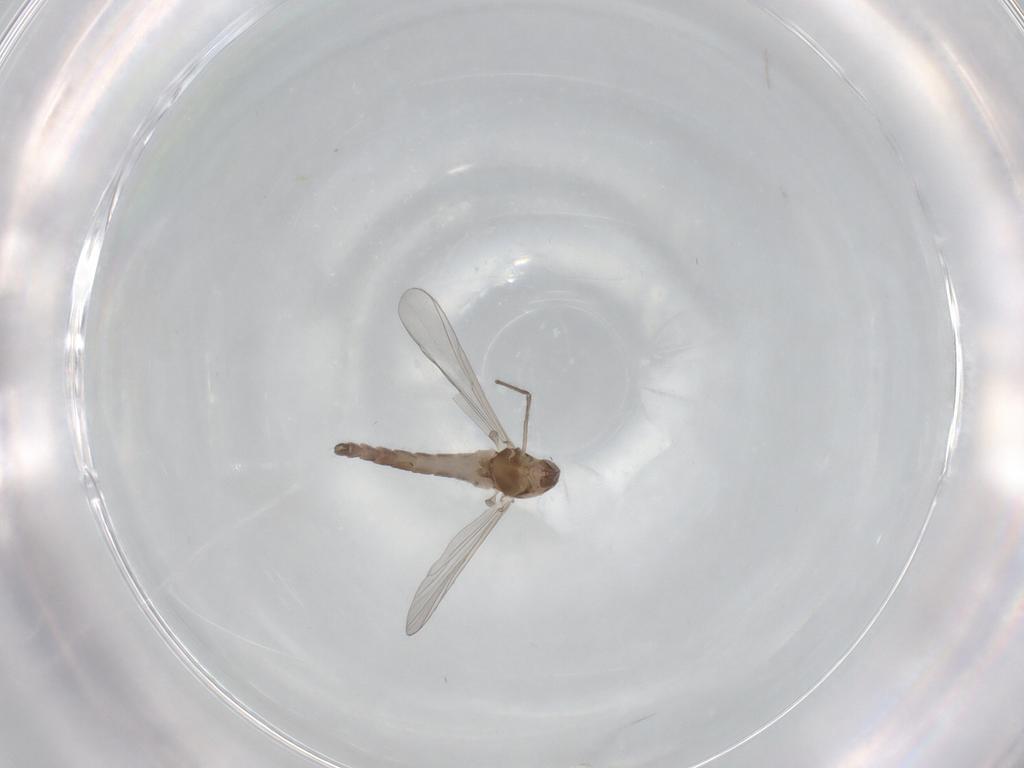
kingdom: Animalia
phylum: Arthropoda
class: Insecta
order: Diptera
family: Chironomidae
